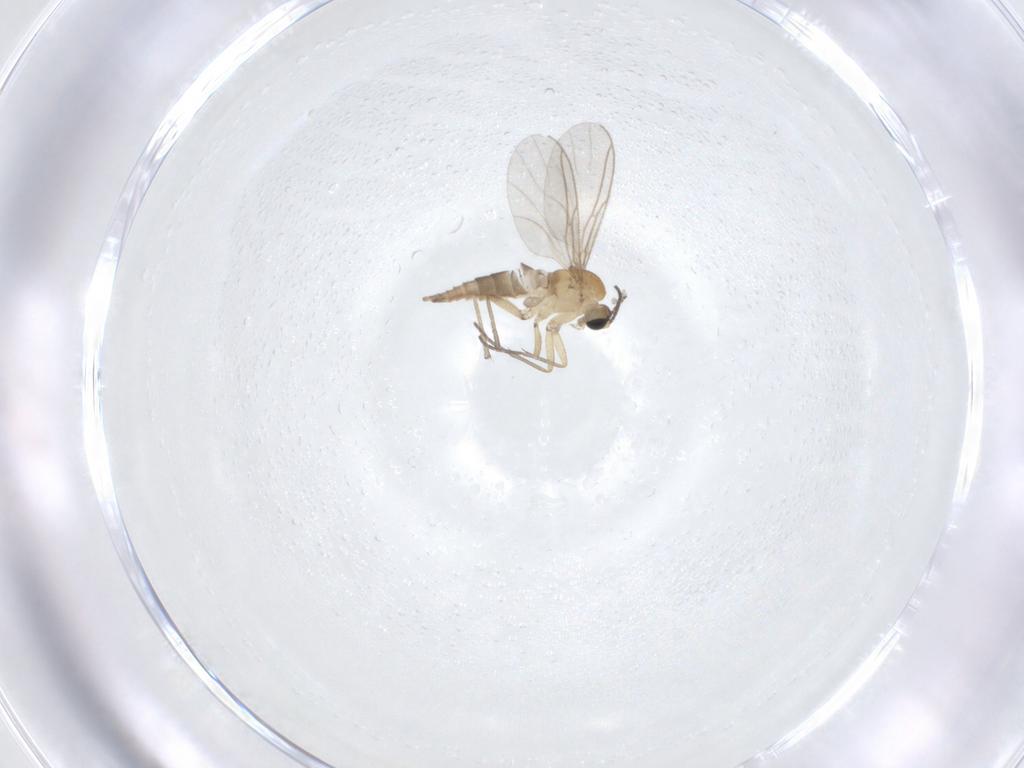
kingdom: Animalia
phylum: Arthropoda
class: Insecta
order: Diptera
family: Sciaridae
